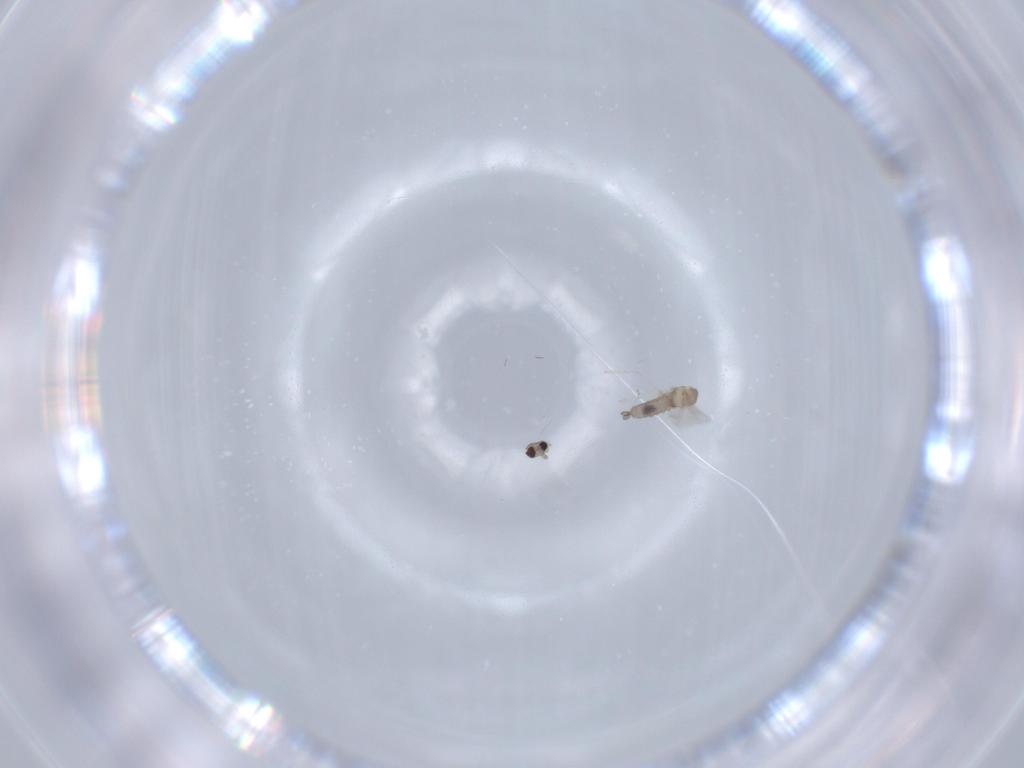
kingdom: Animalia
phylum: Arthropoda
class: Insecta
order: Diptera
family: Cecidomyiidae
